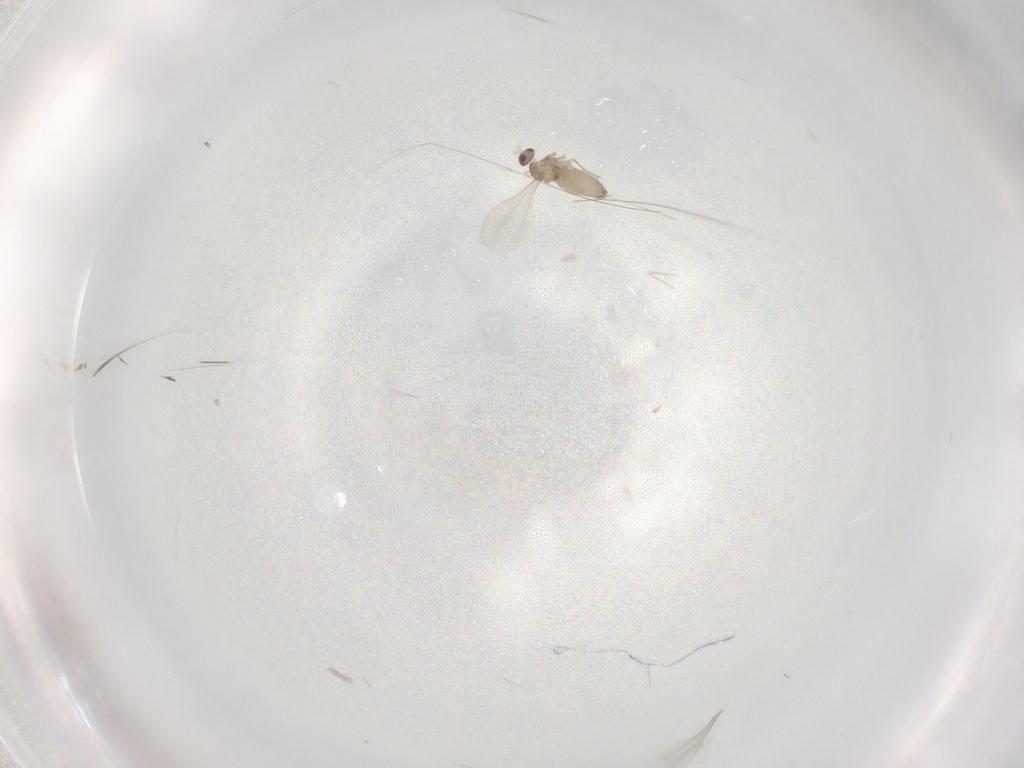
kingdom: Animalia
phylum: Arthropoda
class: Insecta
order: Diptera
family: Cecidomyiidae
